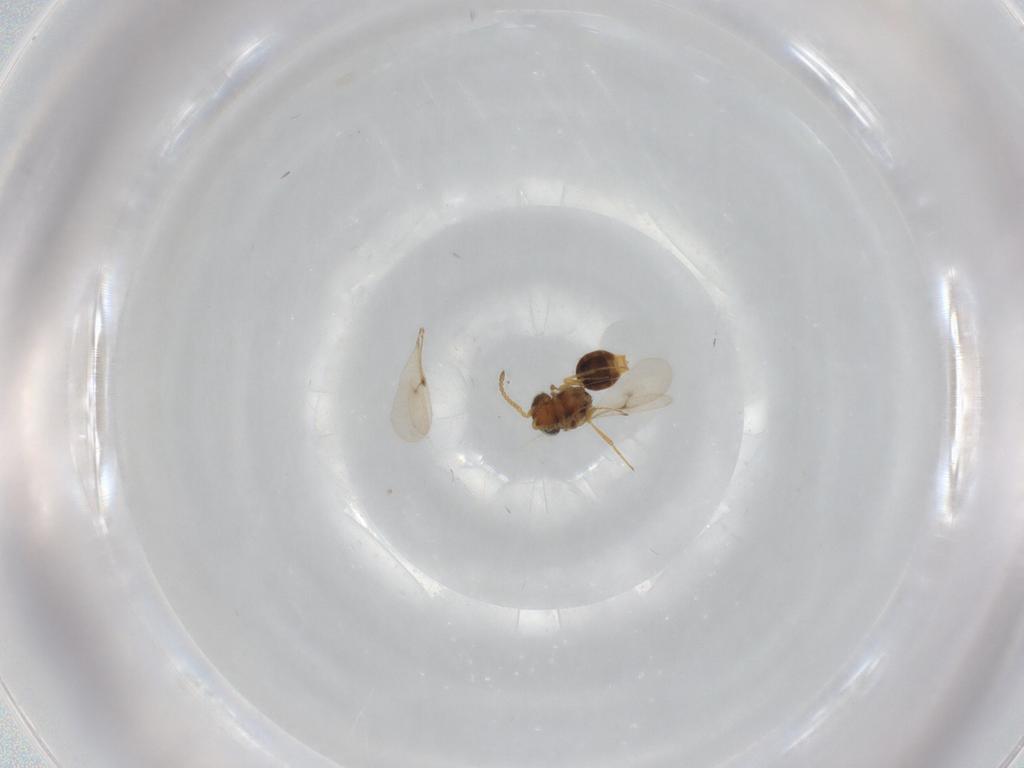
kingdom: Animalia
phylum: Arthropoda
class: Insecta
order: Hymenoptera
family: Scelionidae
